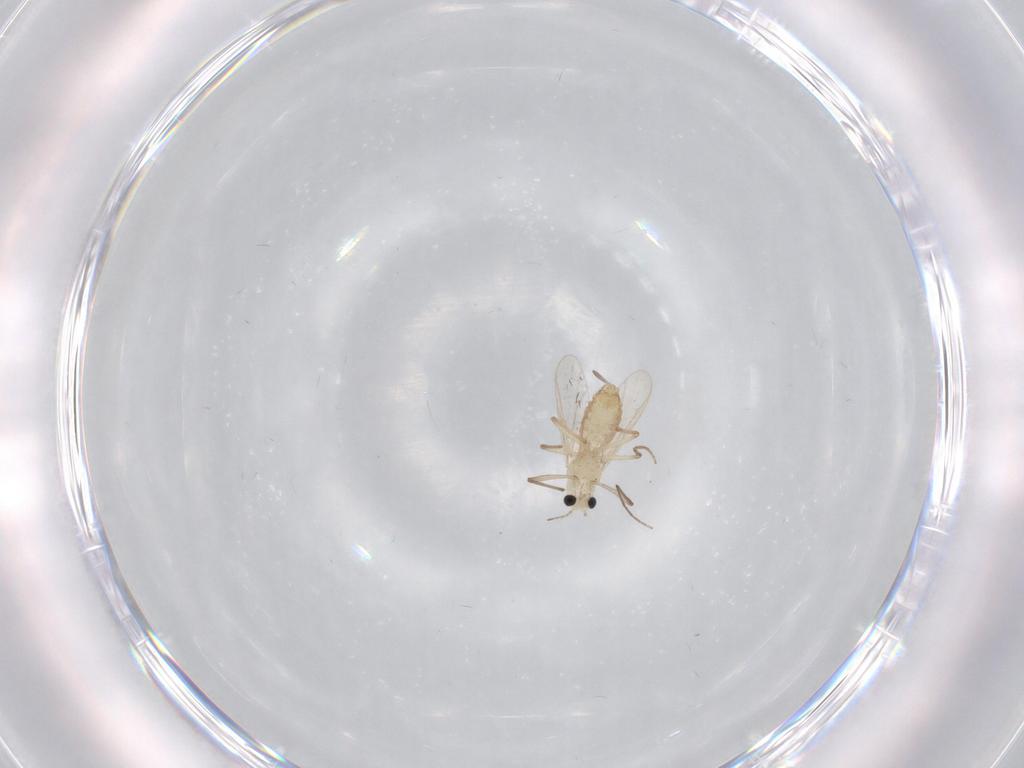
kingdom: Animalia
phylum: Arthropoda
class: Insecta
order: Diptera
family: Chironomidae
